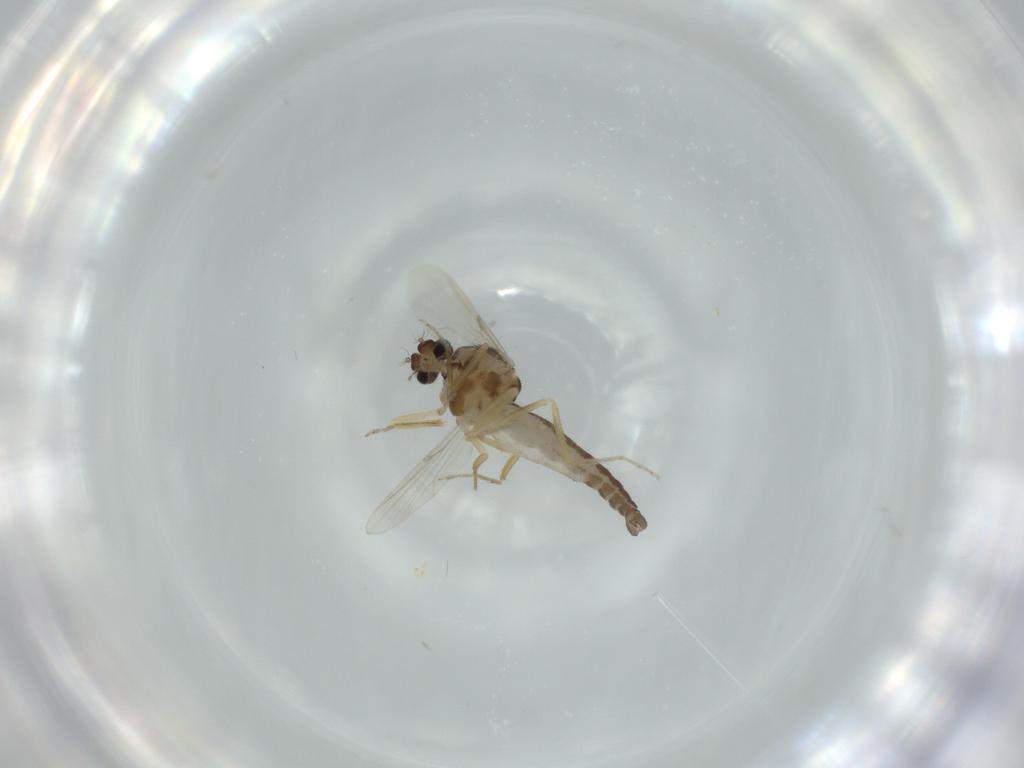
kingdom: Animalia
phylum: Arthropoda
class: Insecta
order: Diptera
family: Ceratopogonidae
